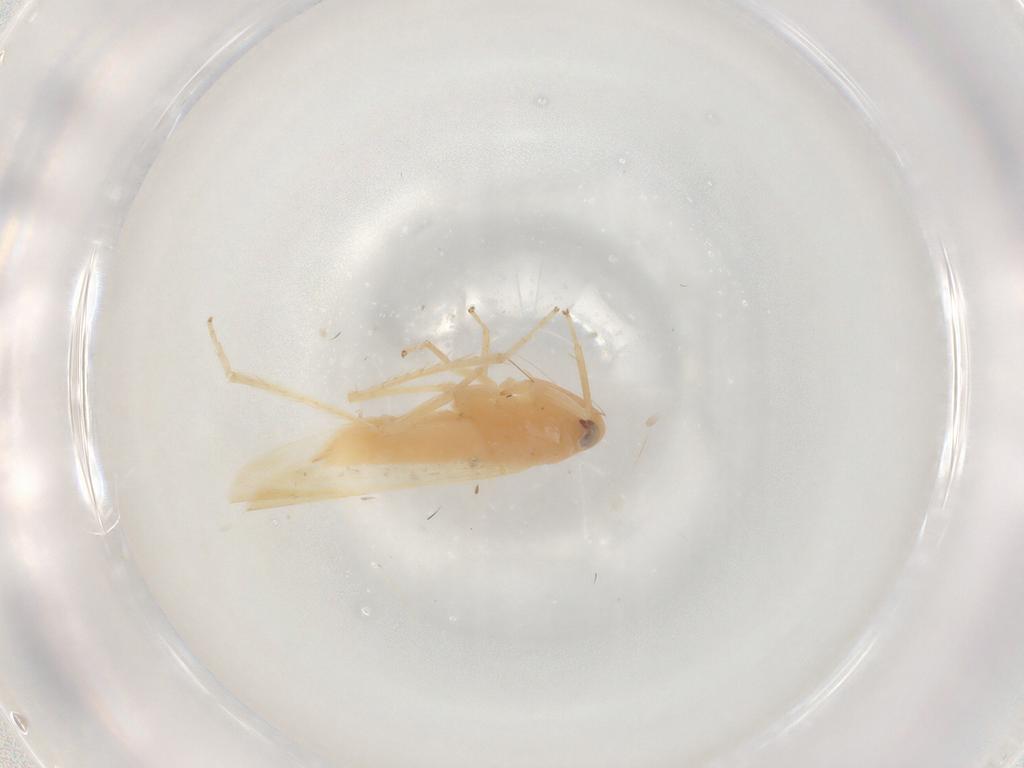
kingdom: Animalia
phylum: Arthropoda
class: Insecta
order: Hemiptera
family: Cicadellidae
